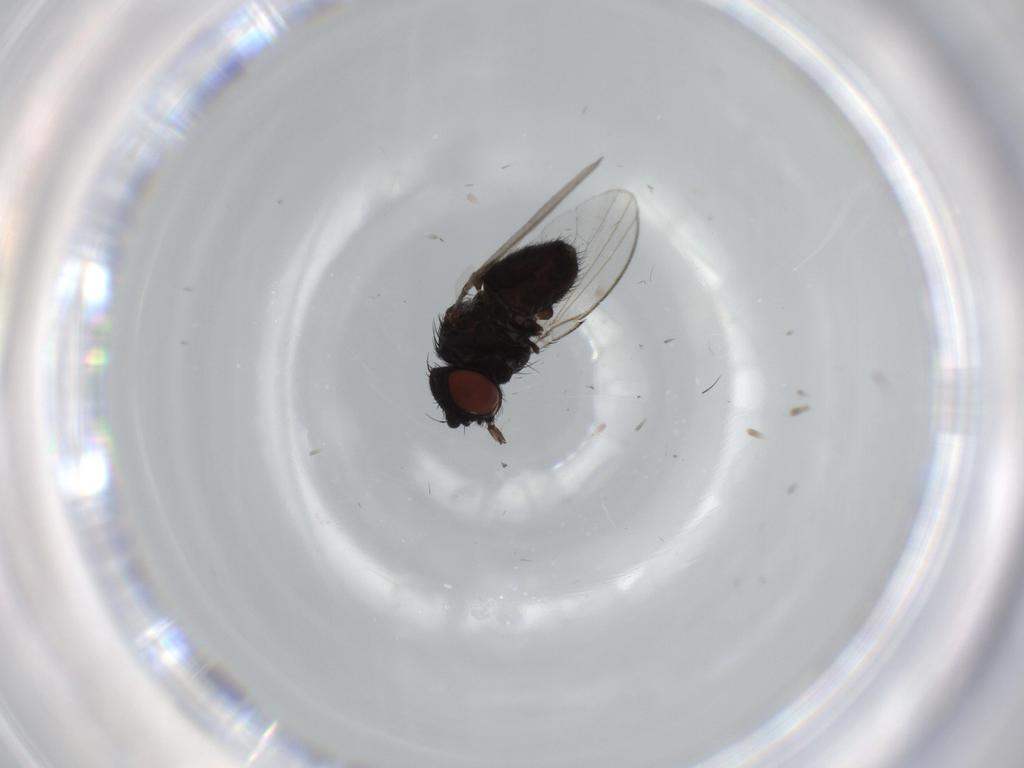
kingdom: Animalia
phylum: Arthropoda
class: Insecta
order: Diptera
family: Milichiidae
